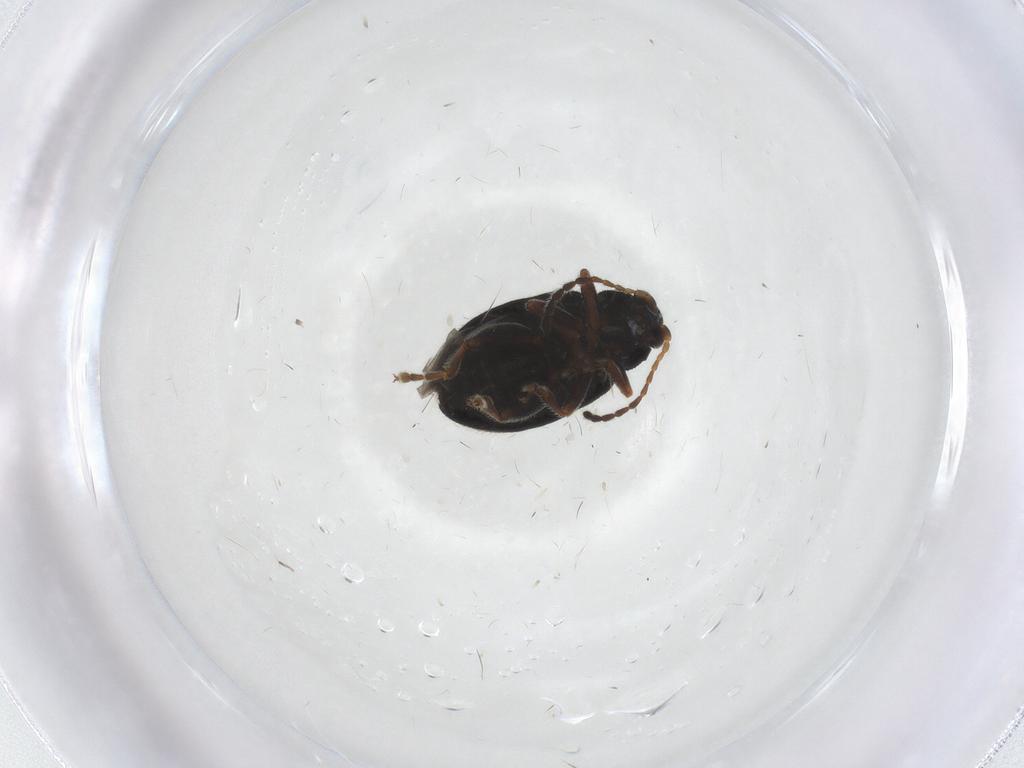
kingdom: Animalia
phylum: Arthropoda
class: Insecta
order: Coleoptera
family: Chrysomelidae
